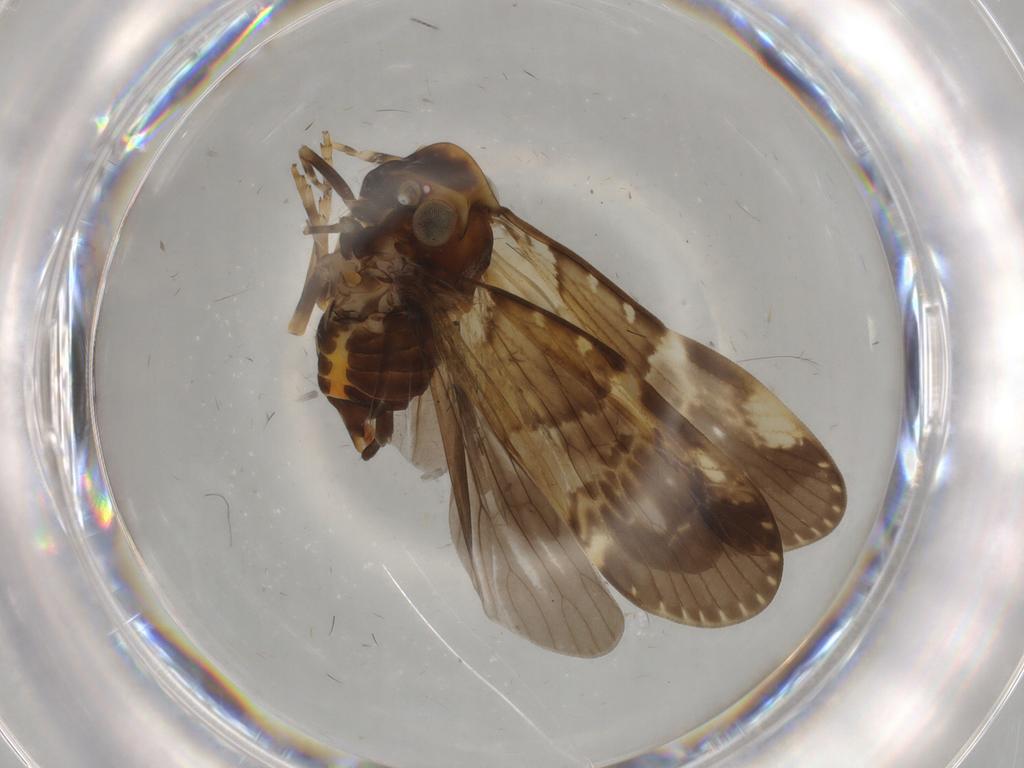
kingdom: Animalia
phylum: Arthropoda
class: Insecta
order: Hemiptera
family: Cixiidae
